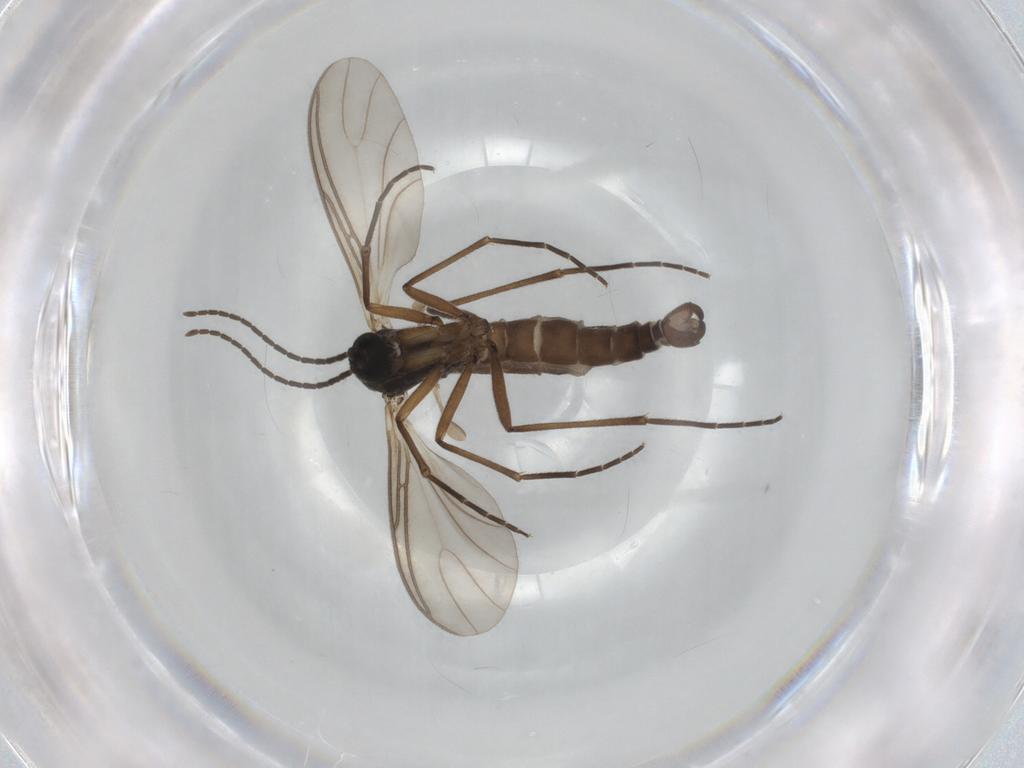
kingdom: Animalia
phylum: Arthropoda
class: Insecta
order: Diptera
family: Sciaridae
